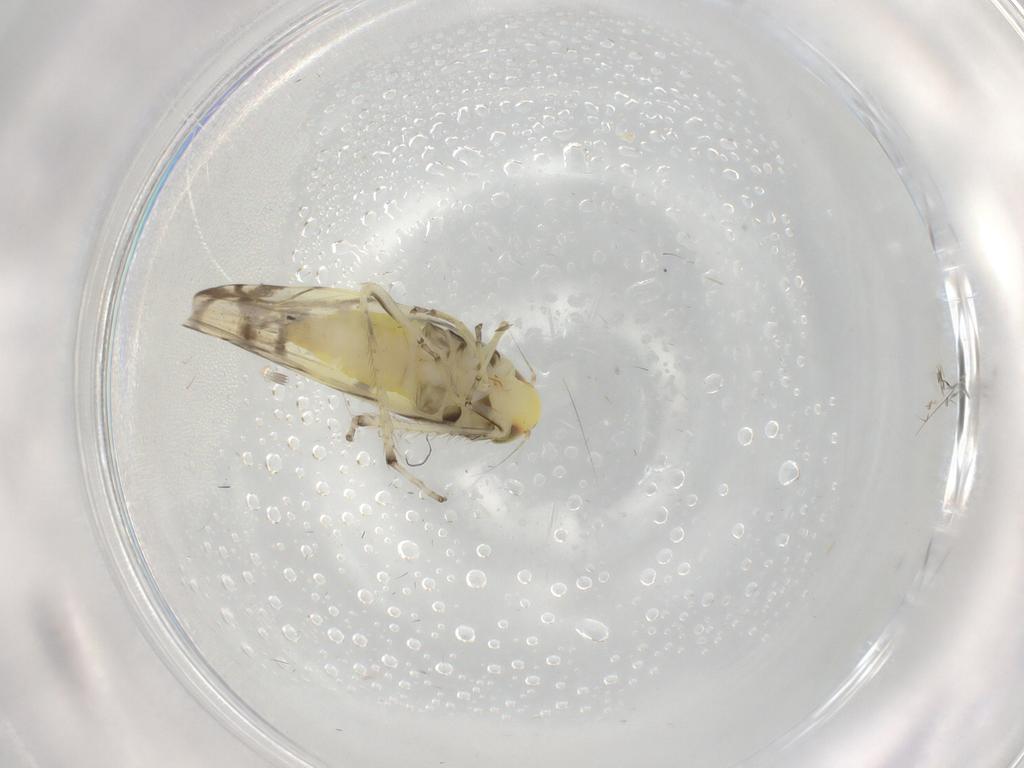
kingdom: Animalia
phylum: Arthropoda
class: Insecta
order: Hemiptera
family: Cicadellidae
